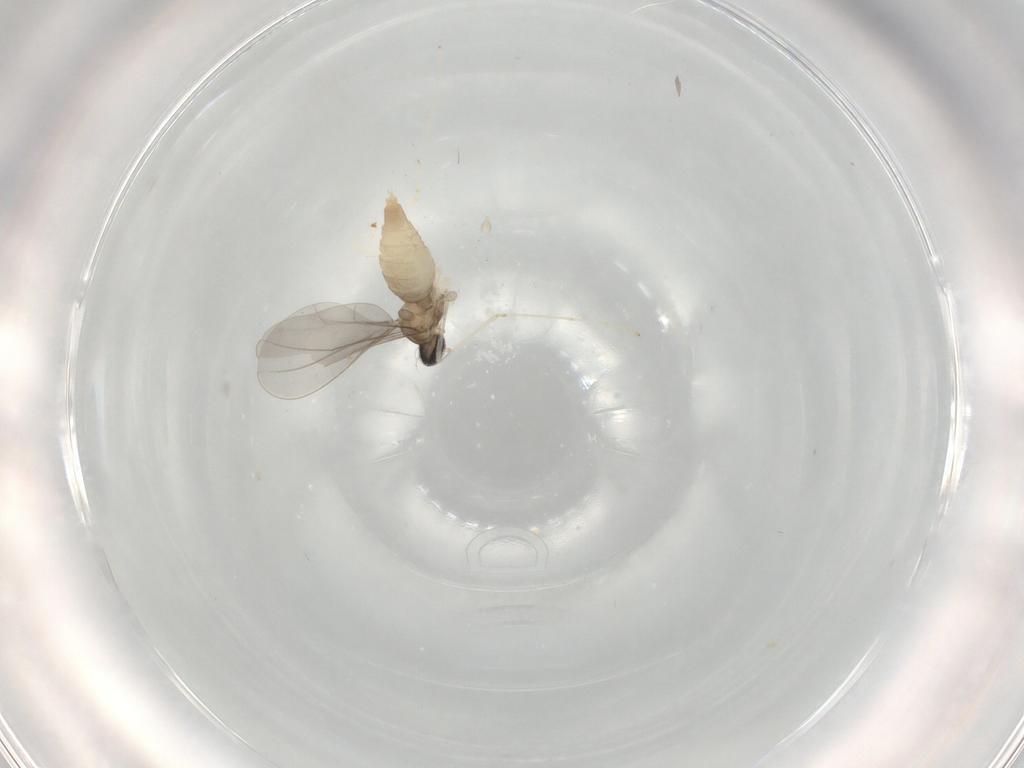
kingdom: Animalia
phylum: Arthropoda
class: Insecta
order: Diptera
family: Cecidomyiidae
